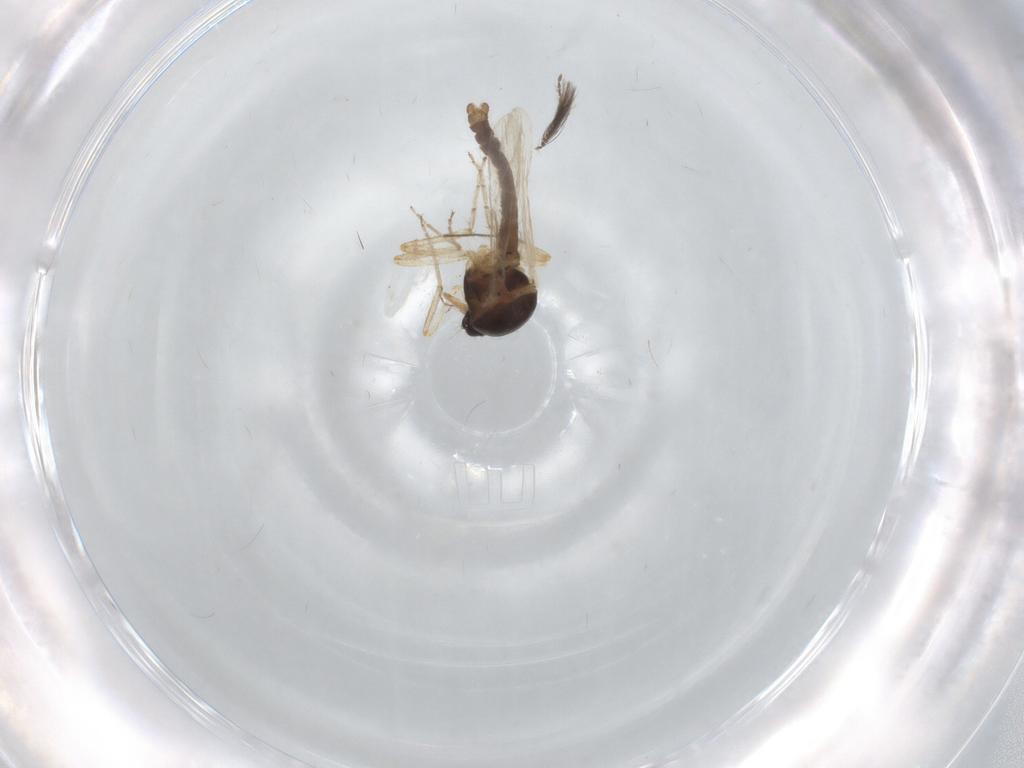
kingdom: Animalia
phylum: Arthropoda
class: Insecta
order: Diptera
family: Ceratopogonidae
